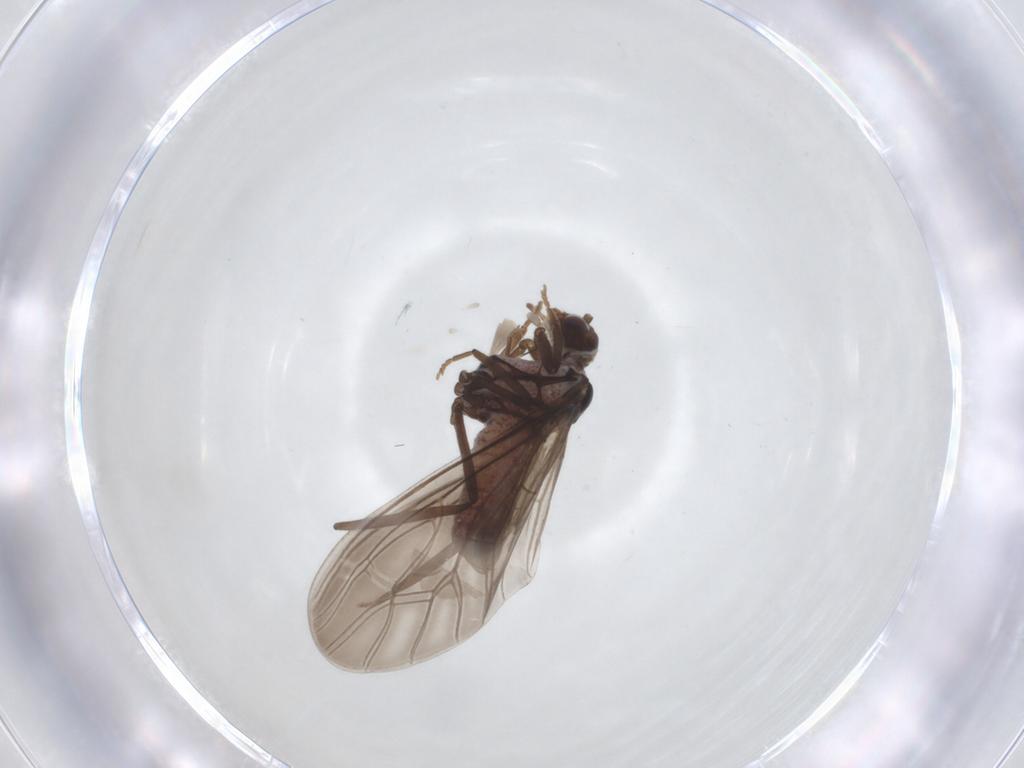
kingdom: Animalia
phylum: Arthropoda
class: Insecta
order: Neuroptera
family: Coniopterygidae
